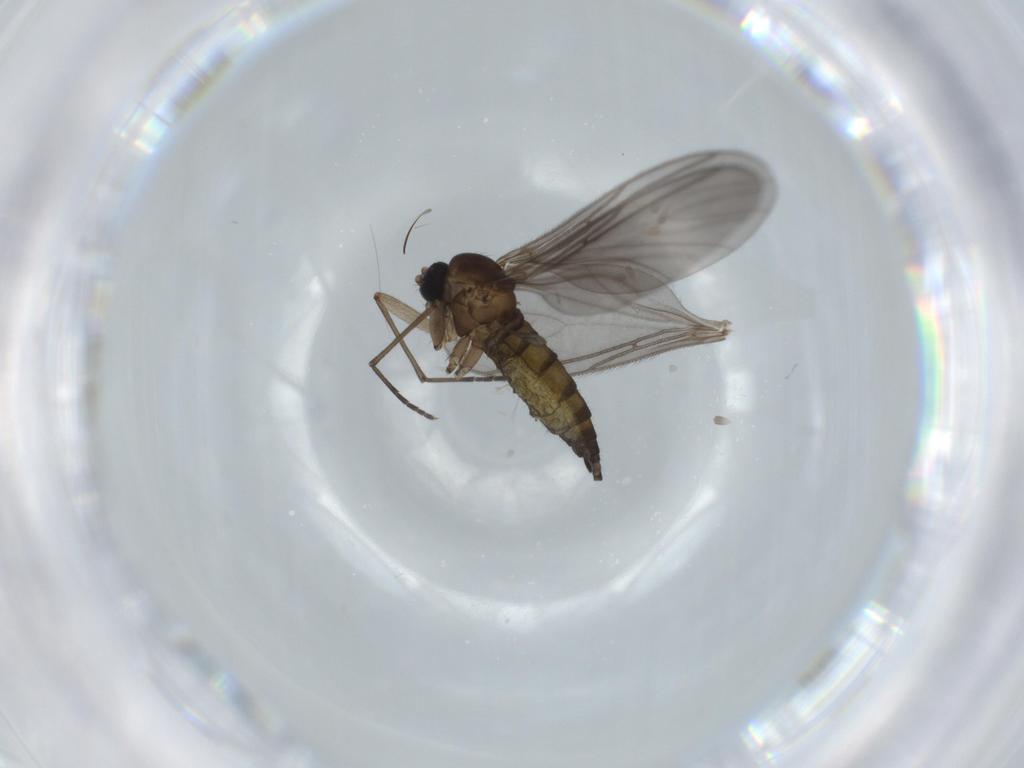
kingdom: Animalia
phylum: Arthropoda
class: Insecta
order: Diptera
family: Sciaridae
